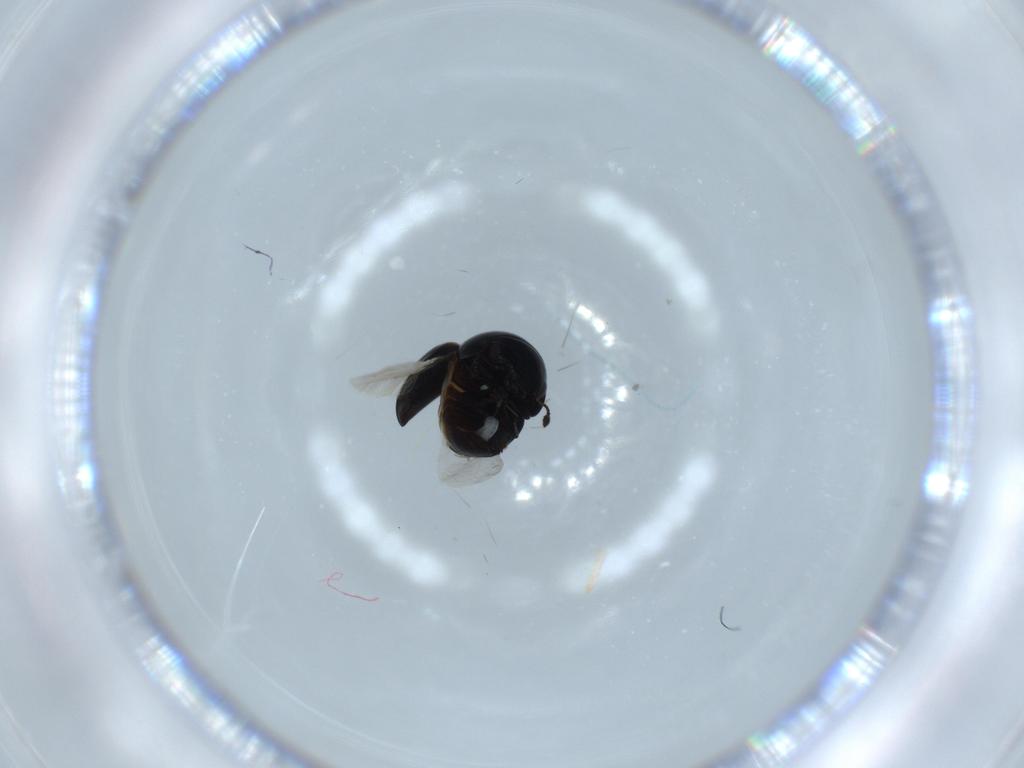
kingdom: Animalia
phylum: Arthropoda
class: Insecta
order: Coleoptera
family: Cybocephalidae
